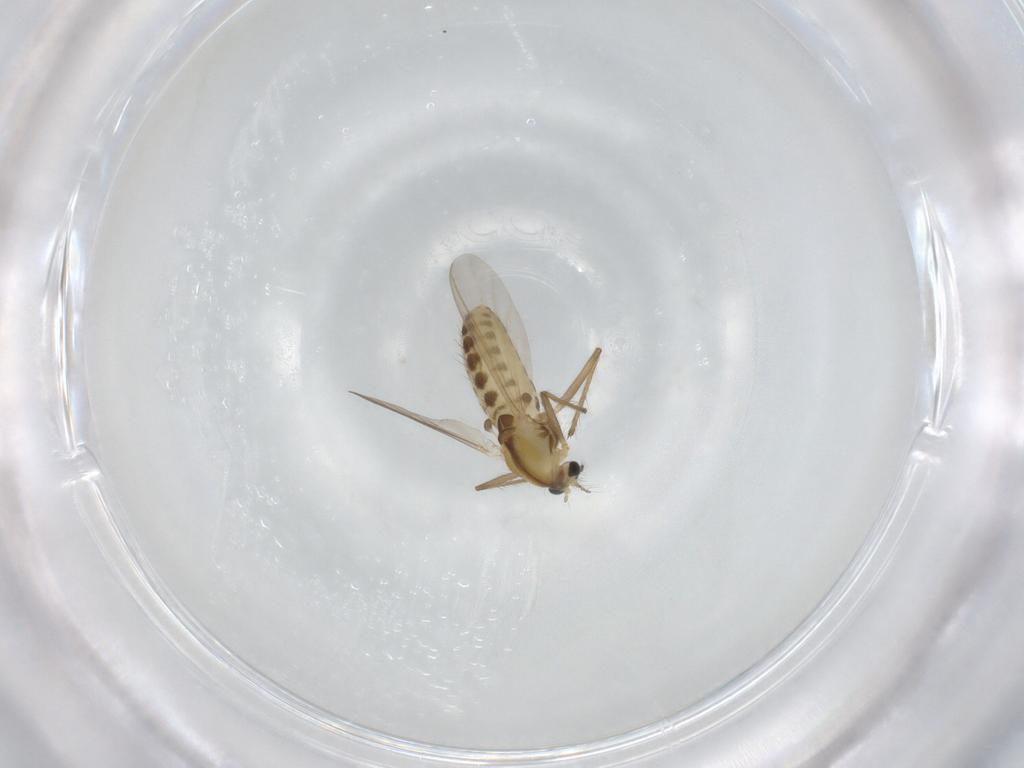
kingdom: Animalia
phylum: Arthropoda
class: Insecta
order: Diptera
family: Chironomidae
